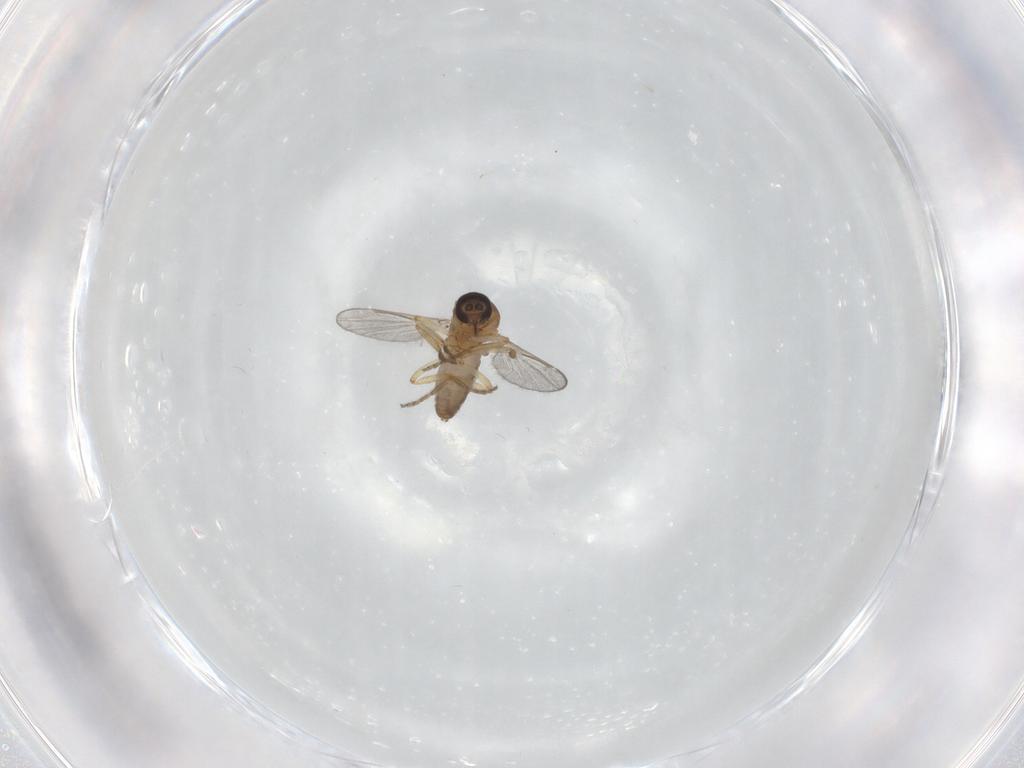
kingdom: Animalia
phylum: Arthropoda
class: Insecta
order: Diptera
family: Ceratopogonidae
